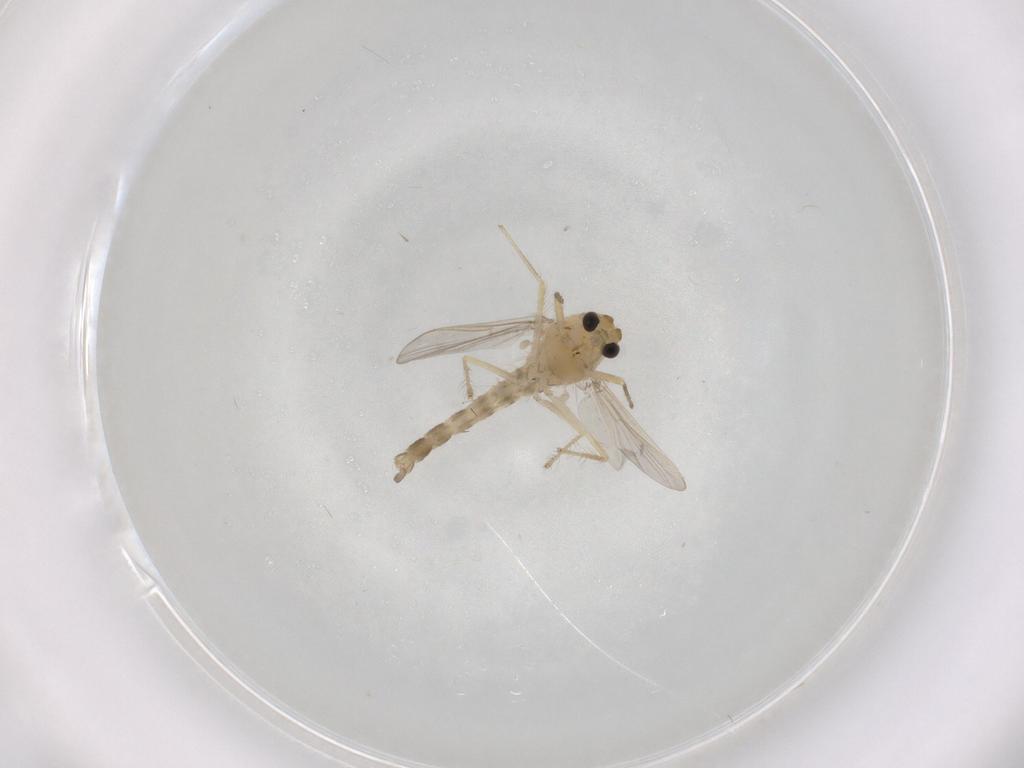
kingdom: Animalia
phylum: Arthropoda
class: Insecta
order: Diptera
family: Chironomidae
